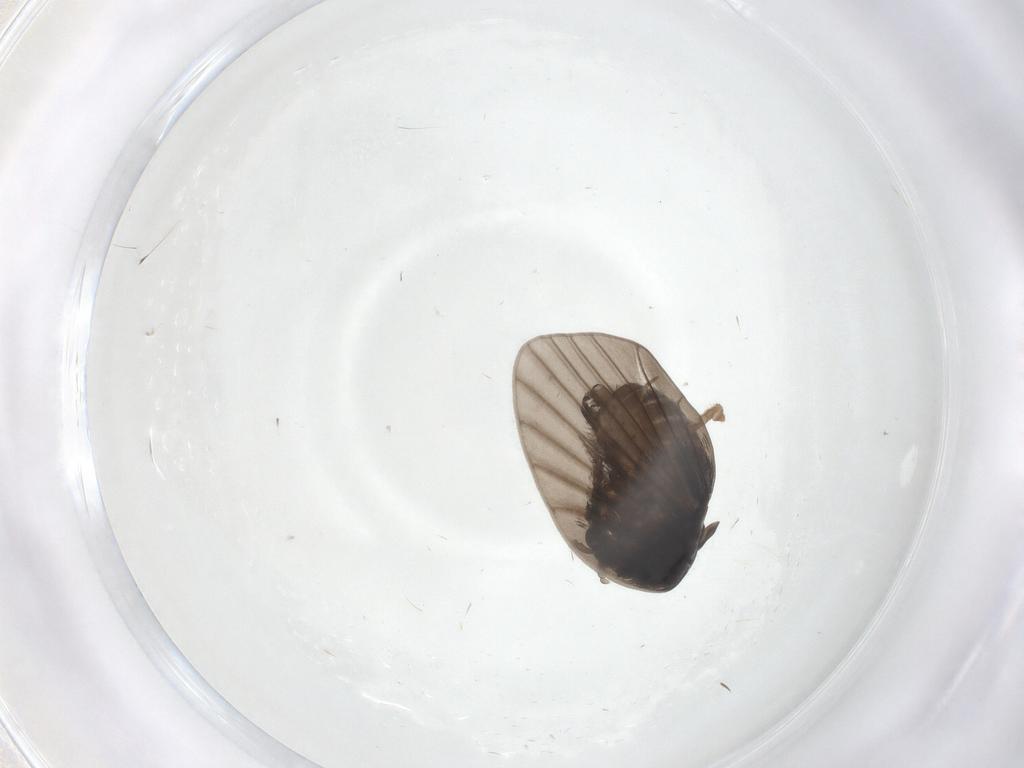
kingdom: Animalia
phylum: Arthropoda
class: Insecta
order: Diptera
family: Psychodidae
